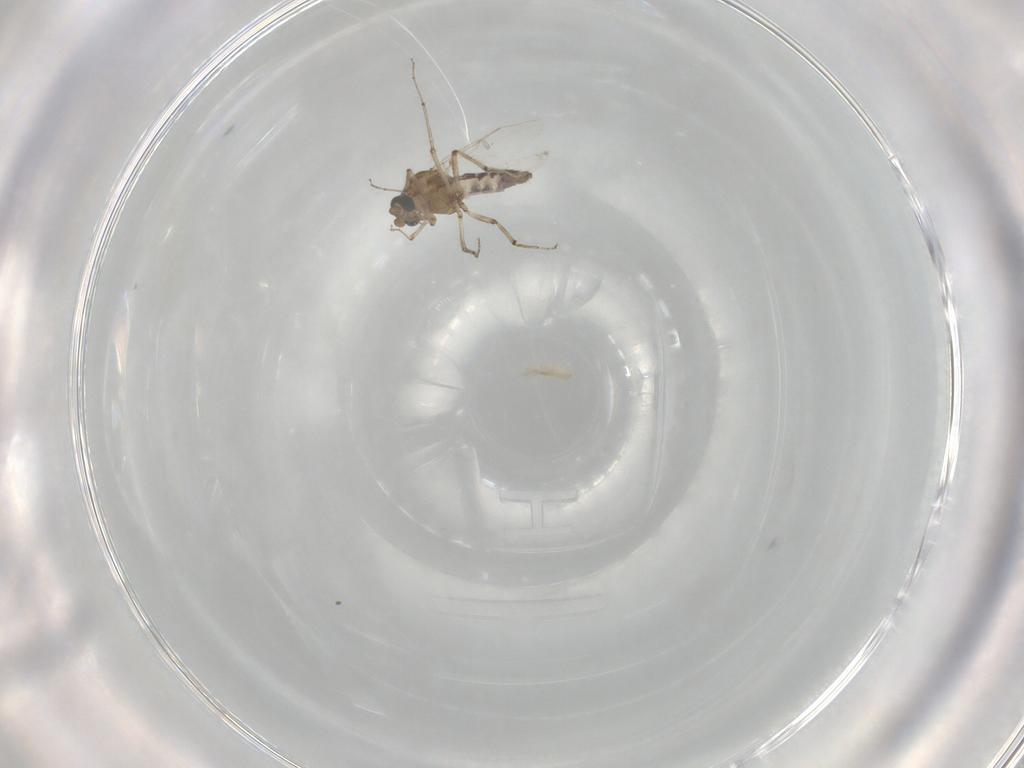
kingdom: Animalia
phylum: Arthropoda
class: Insecta
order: Diptera
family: Ceratopogonidae
